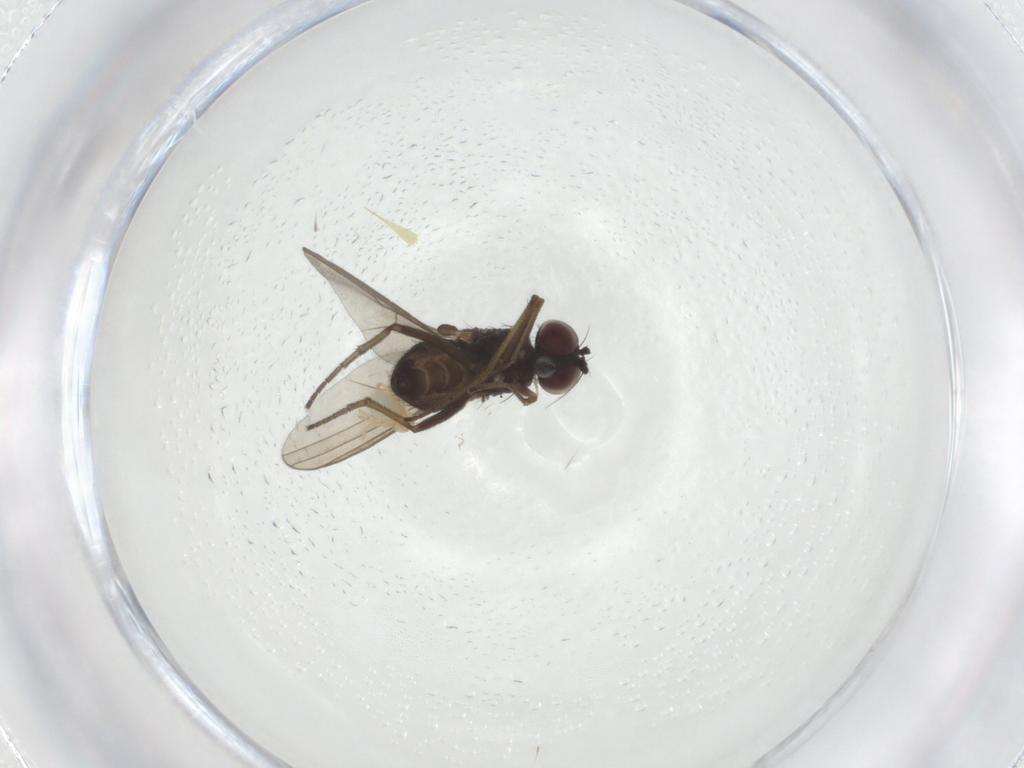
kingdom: Animalia
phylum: Arthropoda
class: Insecta
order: Diptera
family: Dolichopodidae
